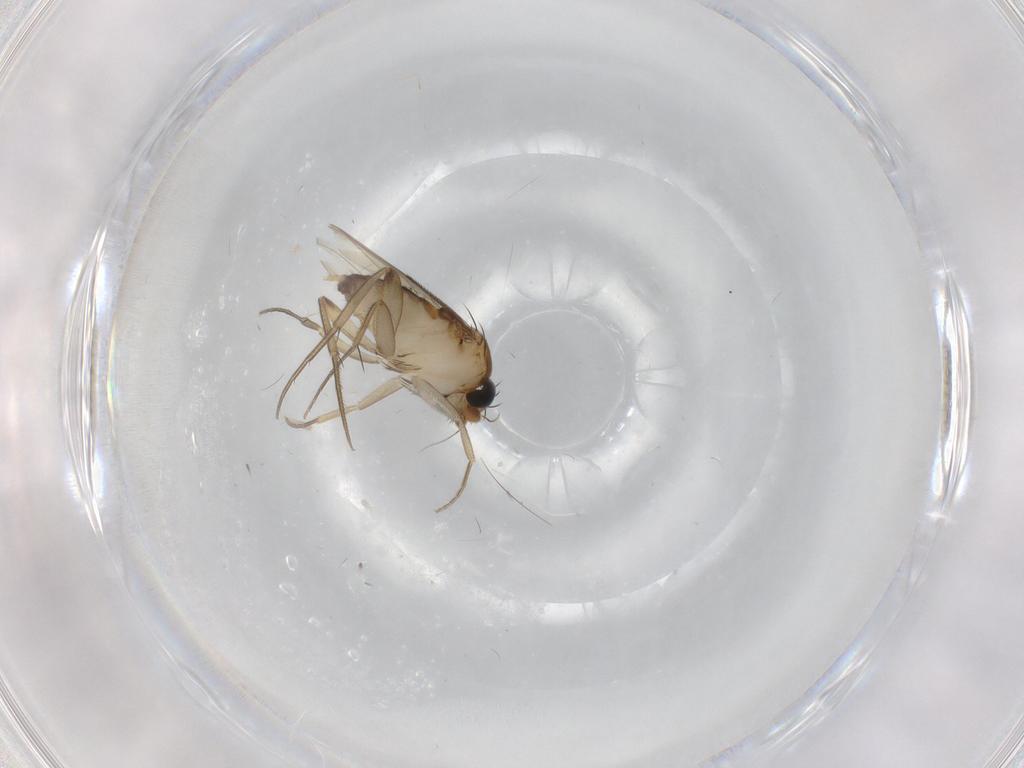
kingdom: Animalia
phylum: Arthropoda
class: Insecta
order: Diptera
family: Phoridae
